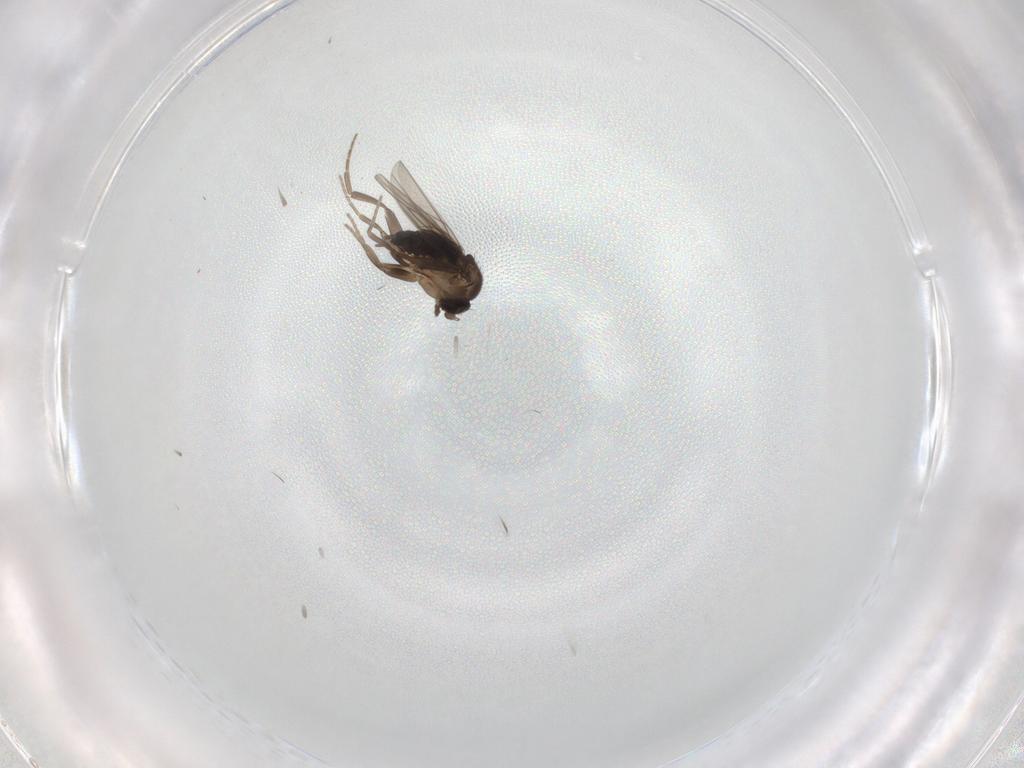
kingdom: Animalia
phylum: Arthropoda
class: Insecta
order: Diptera
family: Phoridae
